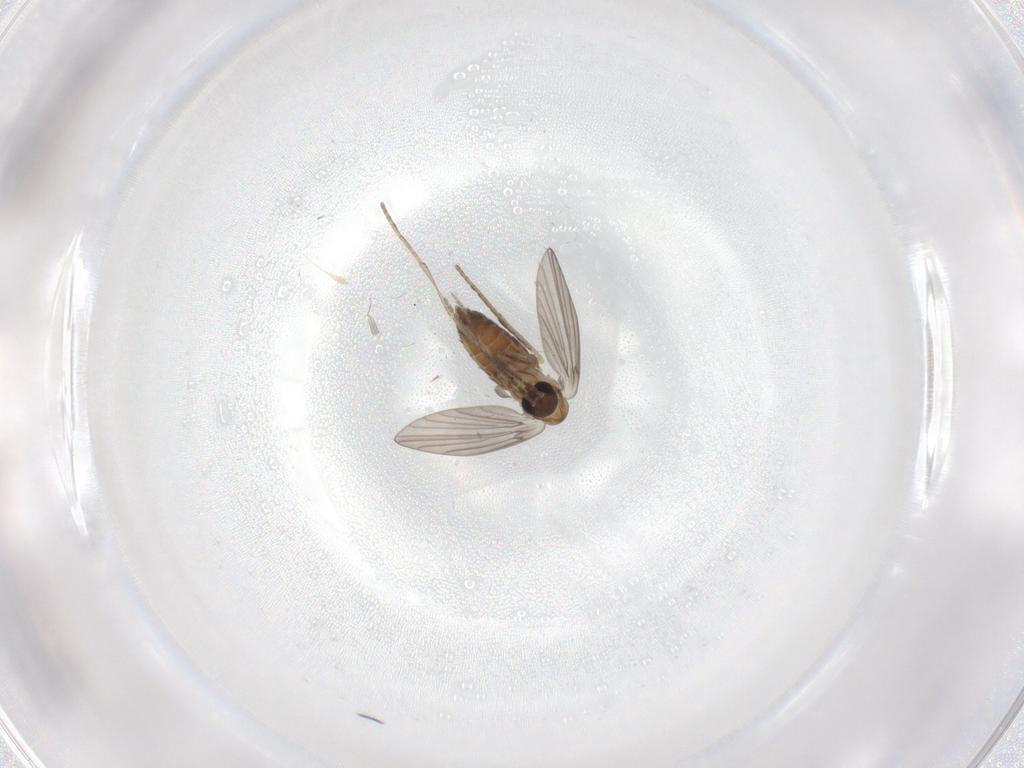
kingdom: Animalia
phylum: Arthropoda
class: Insecta
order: Diptera
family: Psychodidae
